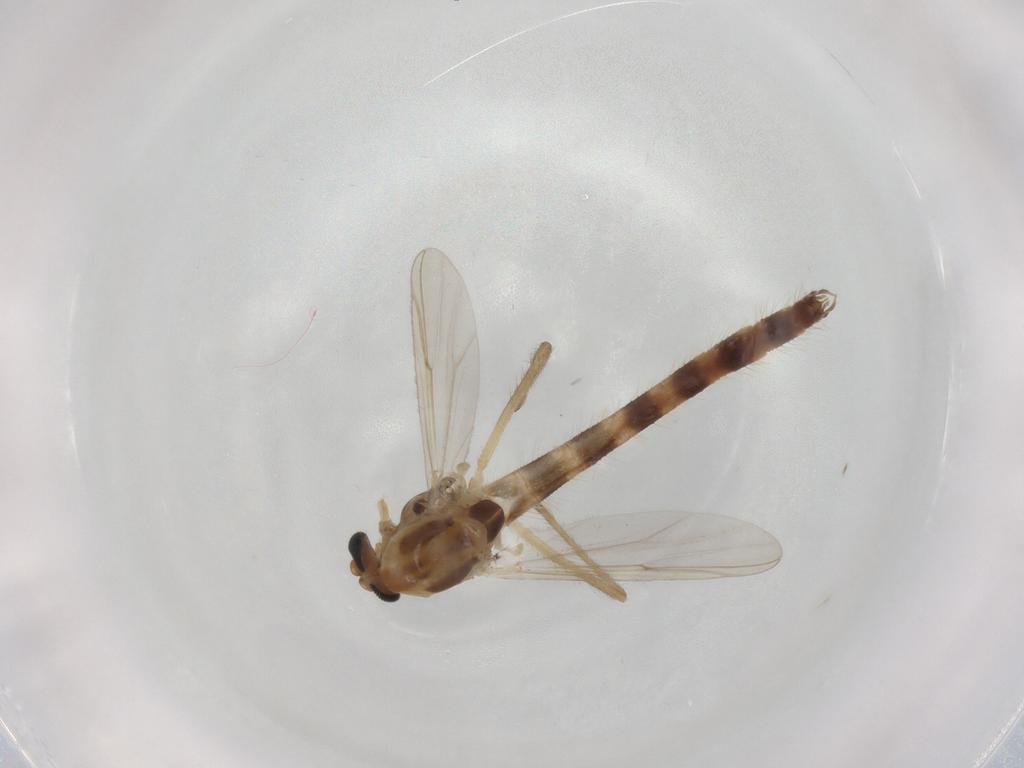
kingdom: Animalia
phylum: Arthropoda
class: Insecta
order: Diptera
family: Chironomidae
